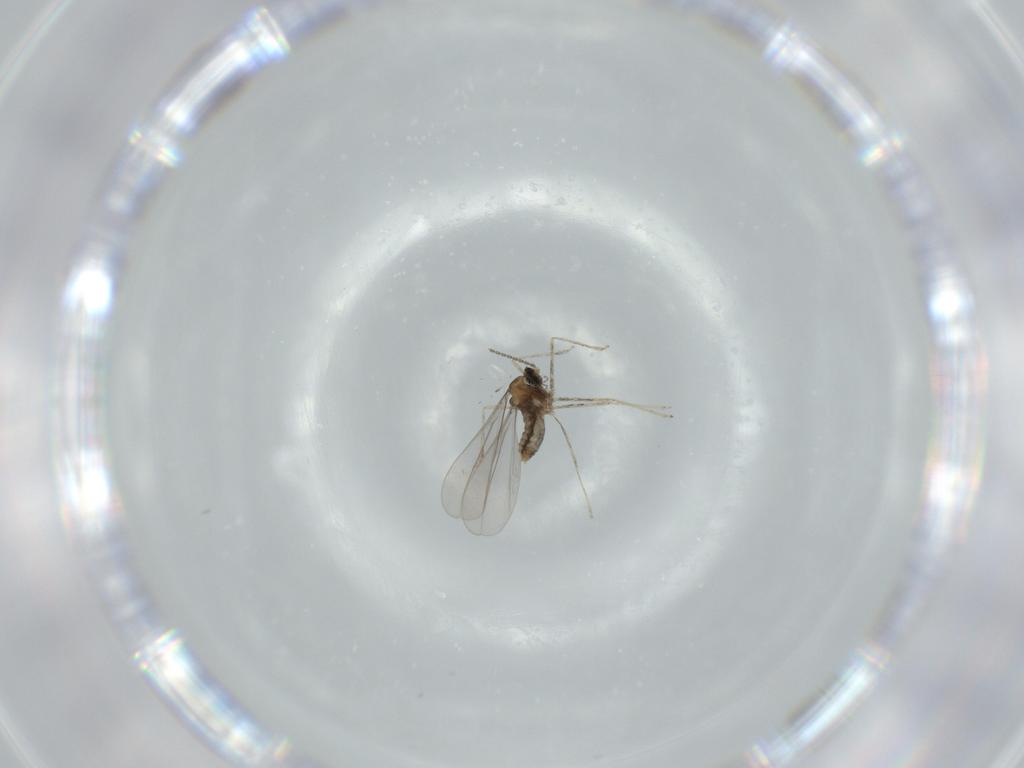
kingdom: Animalia
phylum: Arthropoda
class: Insecta
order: Diptera
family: Cecidomyiidae
